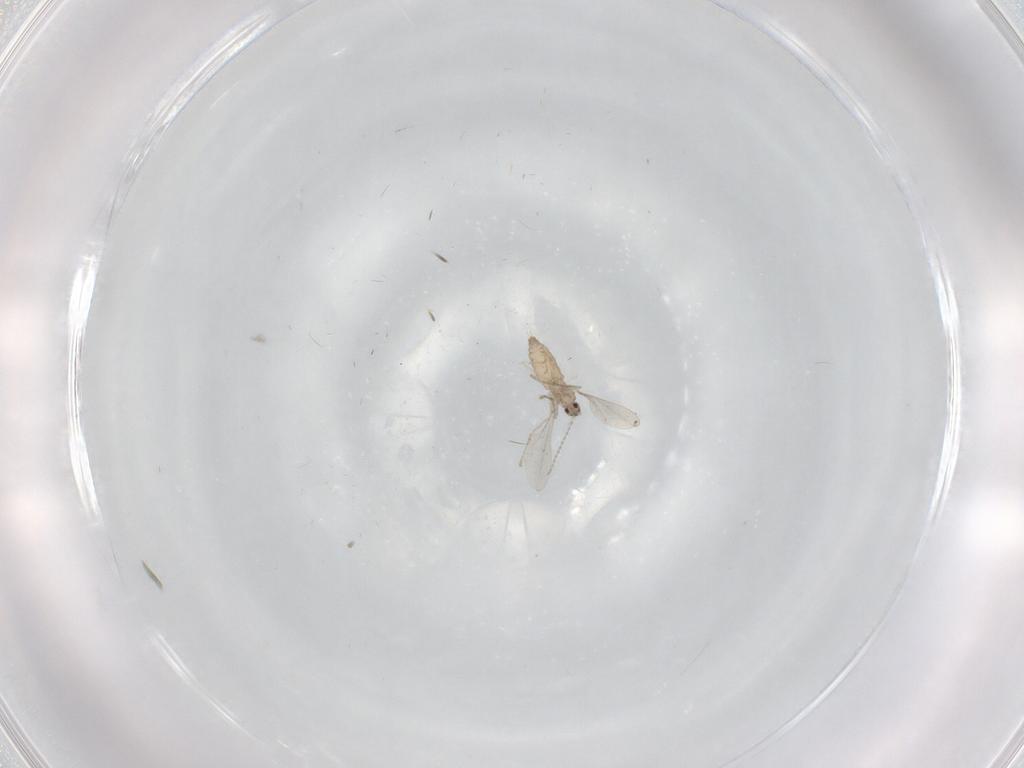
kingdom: Animalia
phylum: Arthropoda
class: Insecta
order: Diptera
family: Cecidomyiidae
